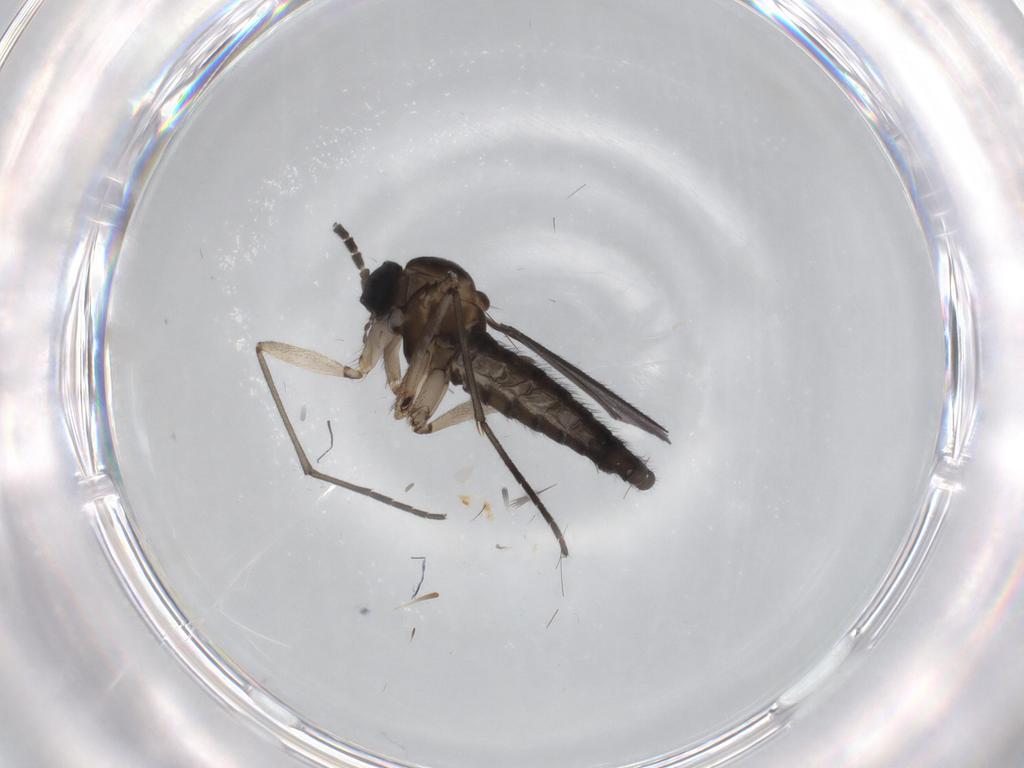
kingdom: Animalia
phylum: Arthropoda
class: Insecta
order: Diptera
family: Sciaridae
